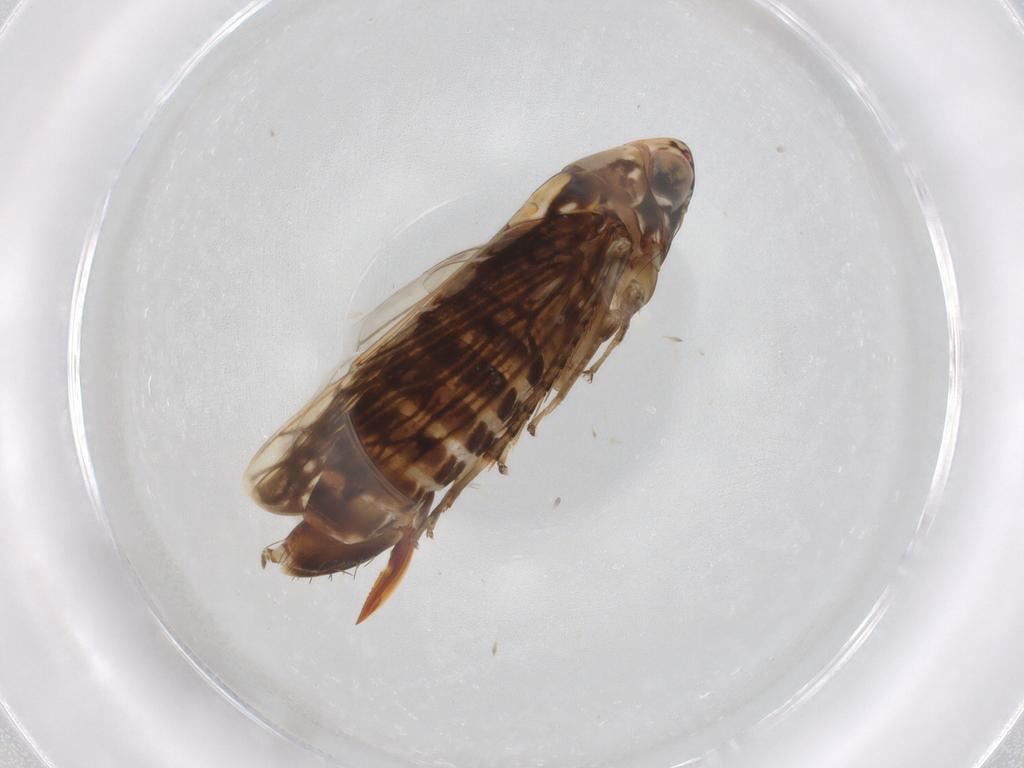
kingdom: Animalia
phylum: Arthropoda
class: Insecta
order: Hemiptera
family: Cicadellidae
